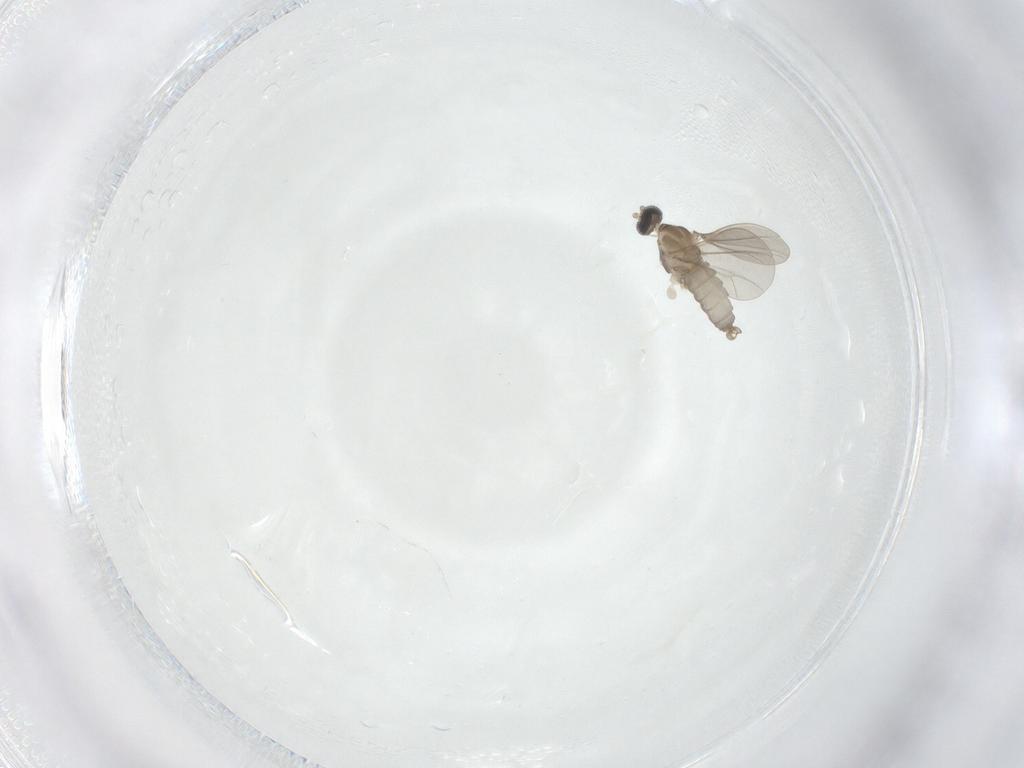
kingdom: Animalia
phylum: Arthropoda
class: Insecta
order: Diptera
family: Cecidomyiidae
